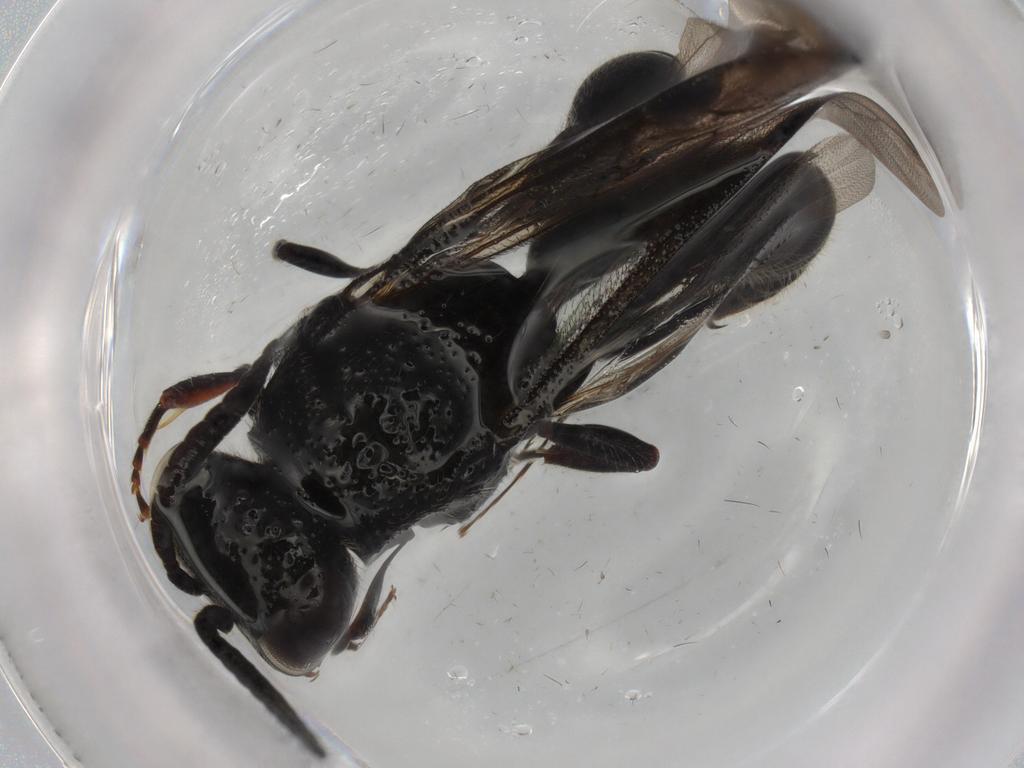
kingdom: Animalia
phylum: Arthropoda
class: Insecta
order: Hymenoptera
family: Tiphiidae
